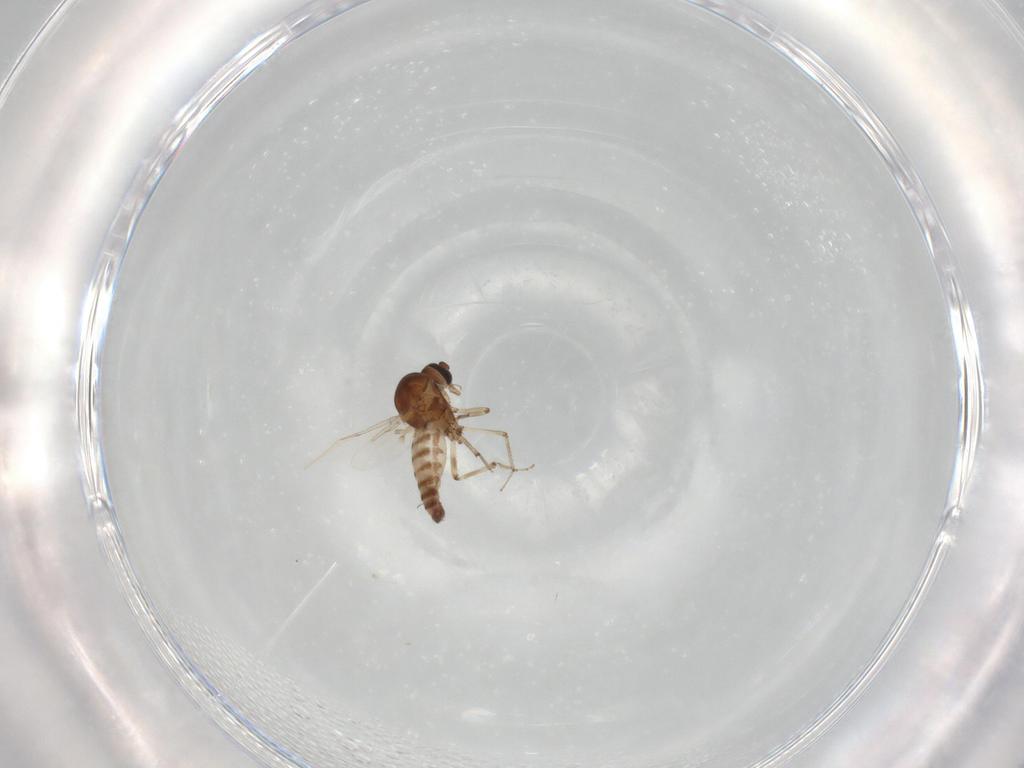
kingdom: Animalia
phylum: Arthropoda
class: Insecta
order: Diptera
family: Ceratopogonidae
